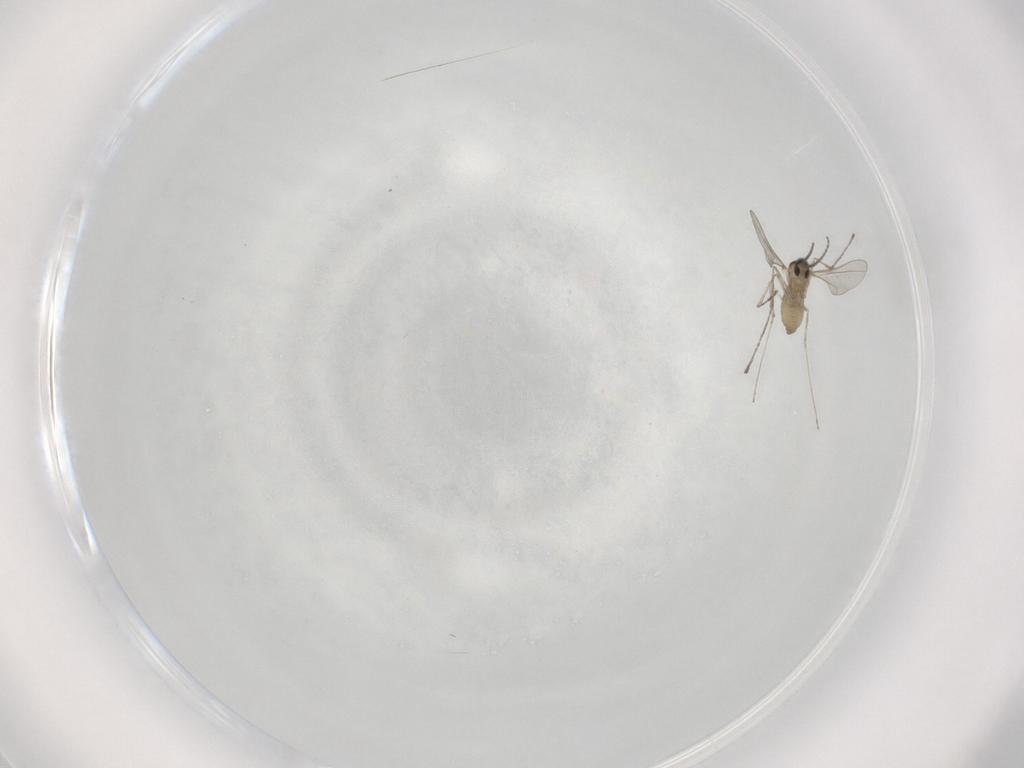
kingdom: Animalia
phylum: Arthropoda
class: Insecta
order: Diptera
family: Cecidomyiidae
